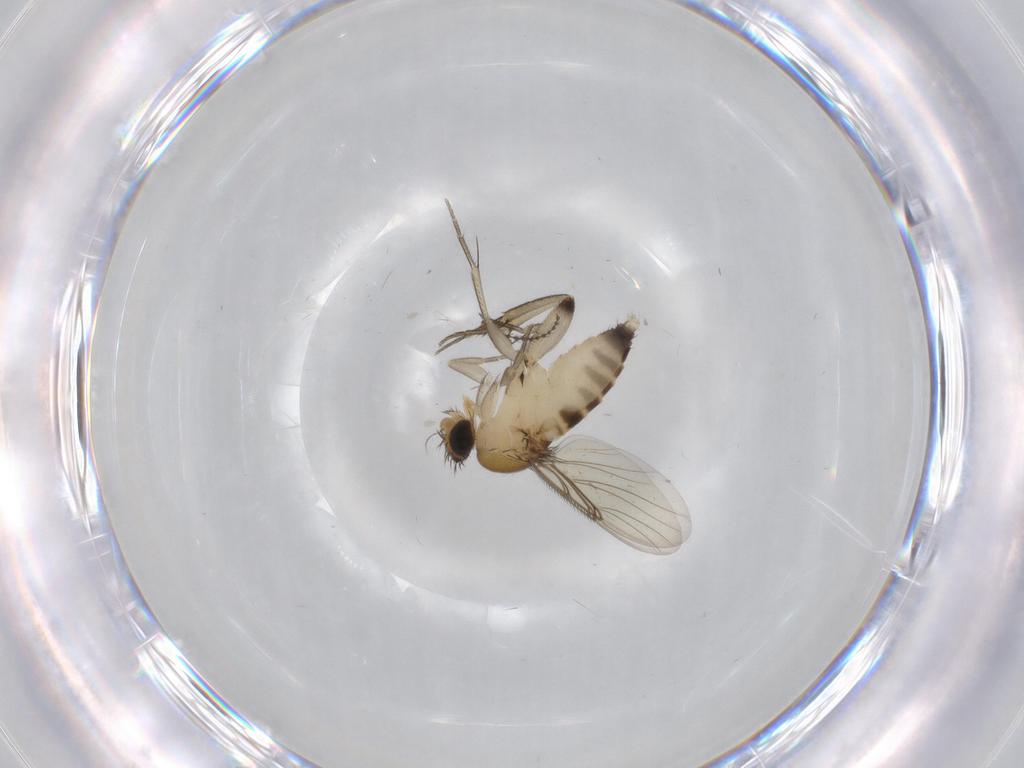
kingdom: Animalia
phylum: Arthropoda
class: Insecta
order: Diptera
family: Phoridae
